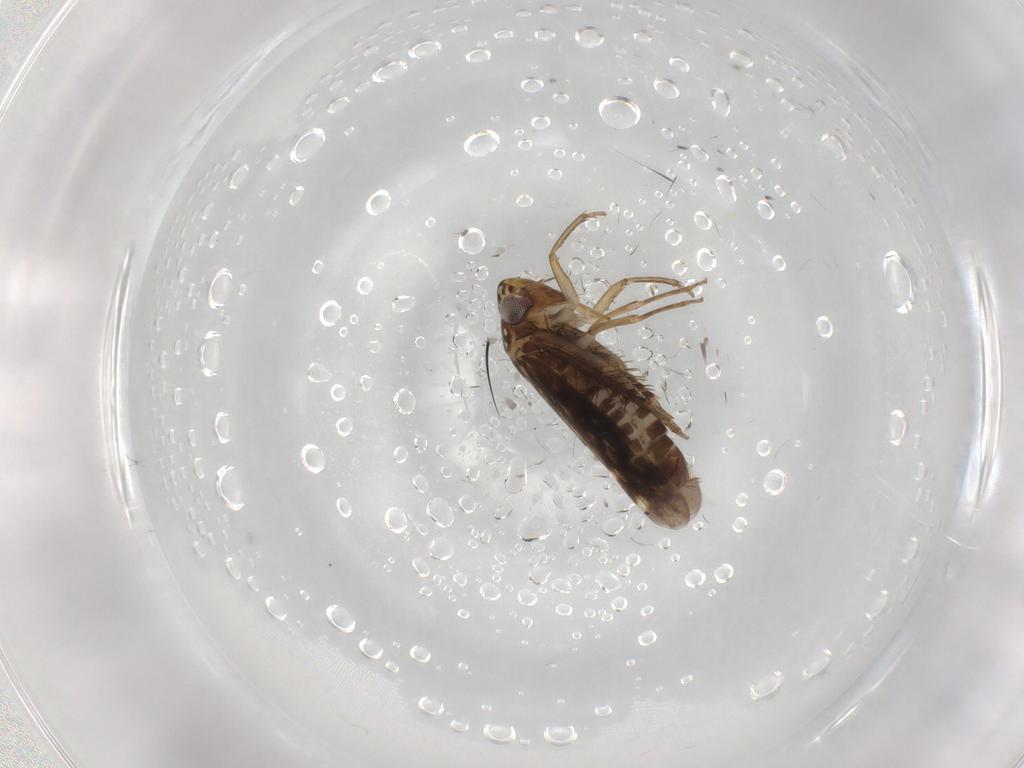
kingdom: Animalia
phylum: Arthropoda
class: Insecta
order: Hemiptera
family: Cicadellidae
